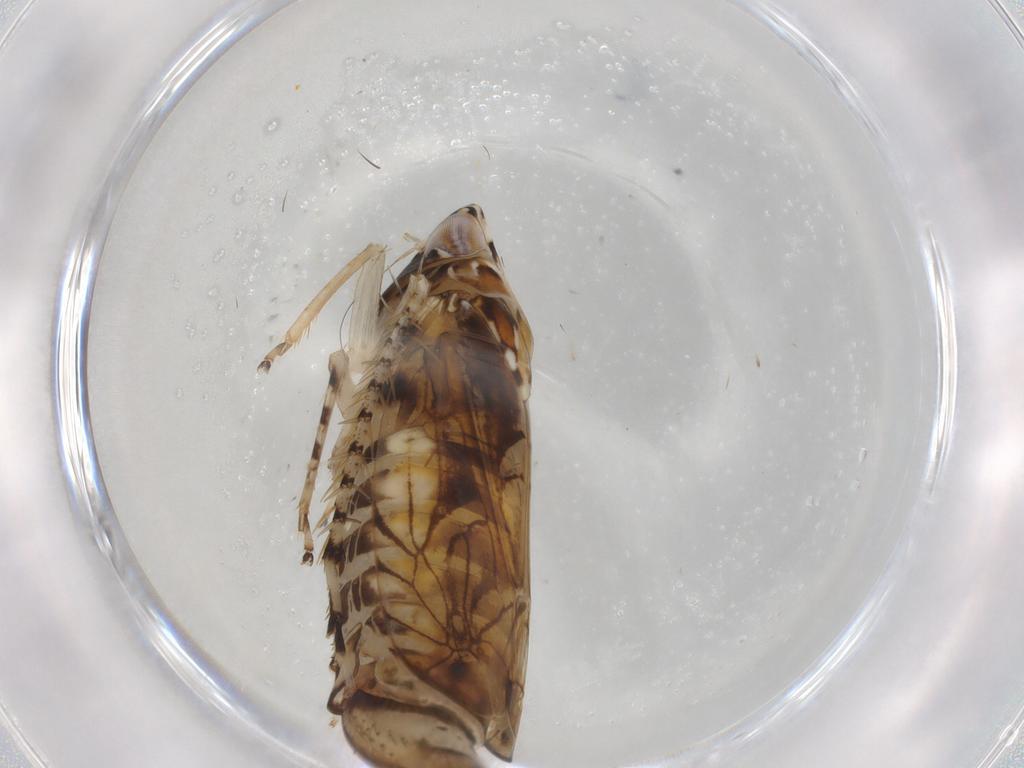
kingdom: Animalia
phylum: Arthropoda
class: Insecta
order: Hemiptera
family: Cicadellidae
